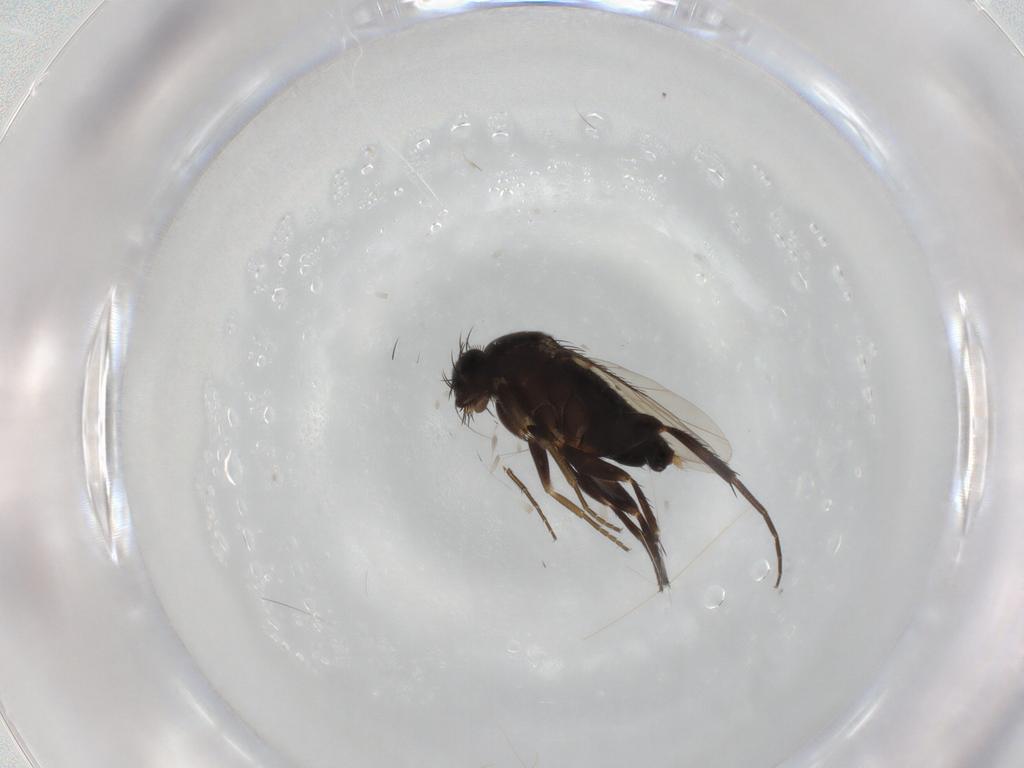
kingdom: Animalia
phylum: Arthropoda
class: Insecta
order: Diptera
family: Phoridae
